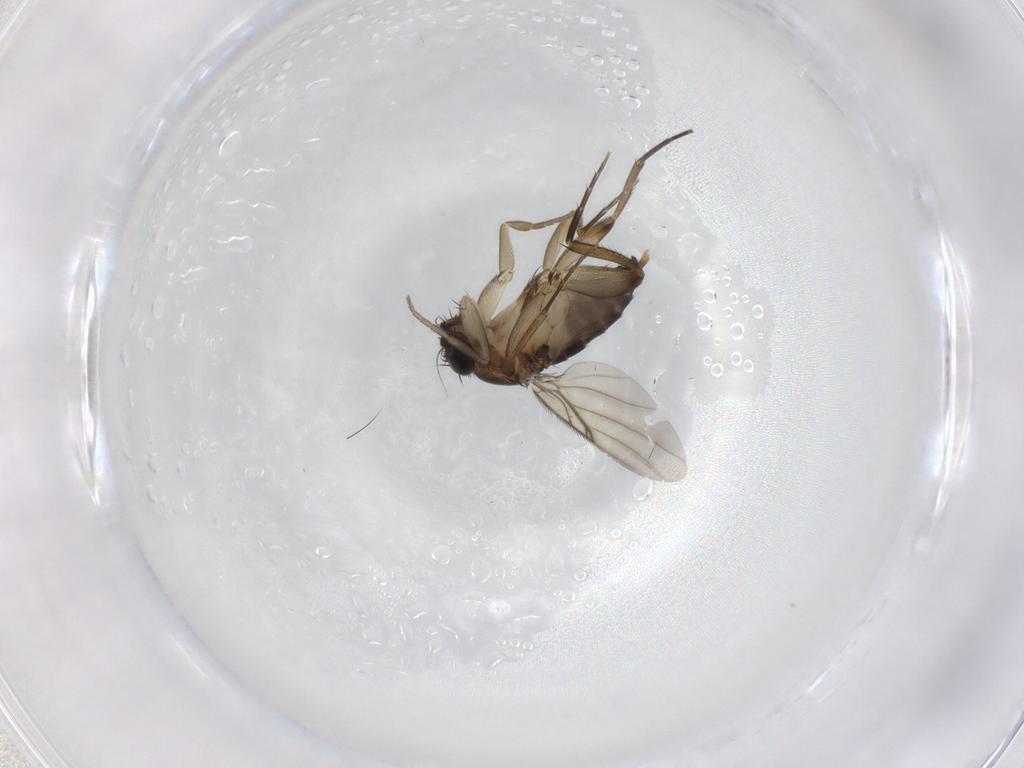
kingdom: Animalia
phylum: Arthropoda
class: Insecta
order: Diptera
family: Phoridae
